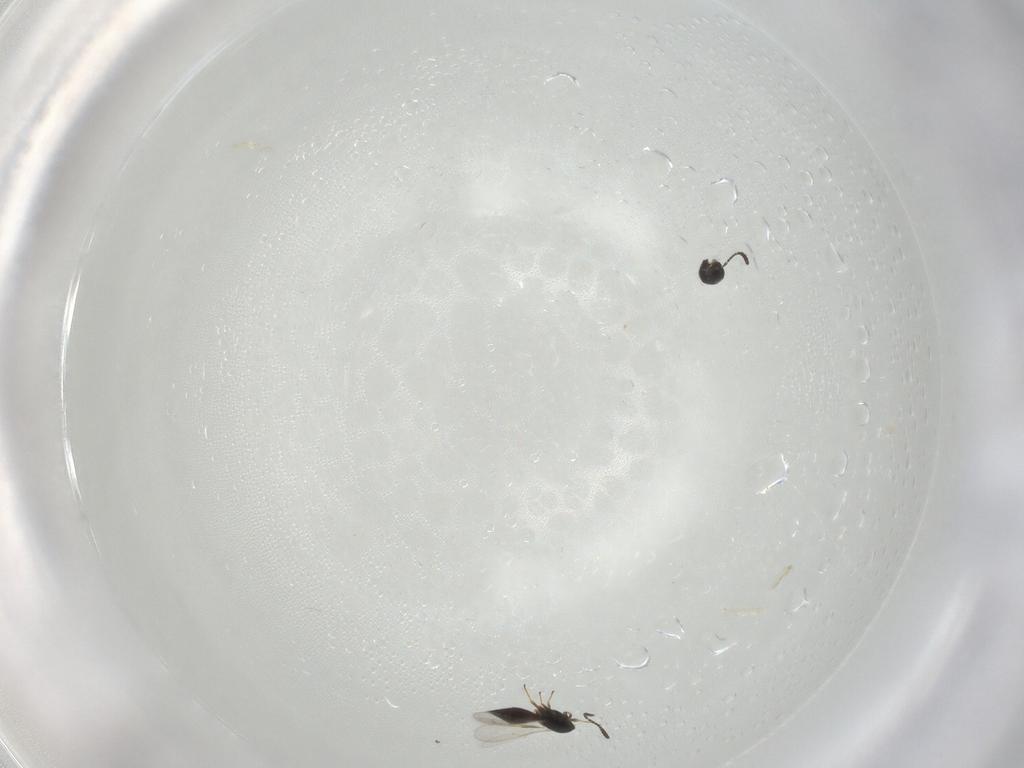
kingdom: Animalia
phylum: Arthropoda
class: Insecta
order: Hymenoptera
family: Scelionidae
